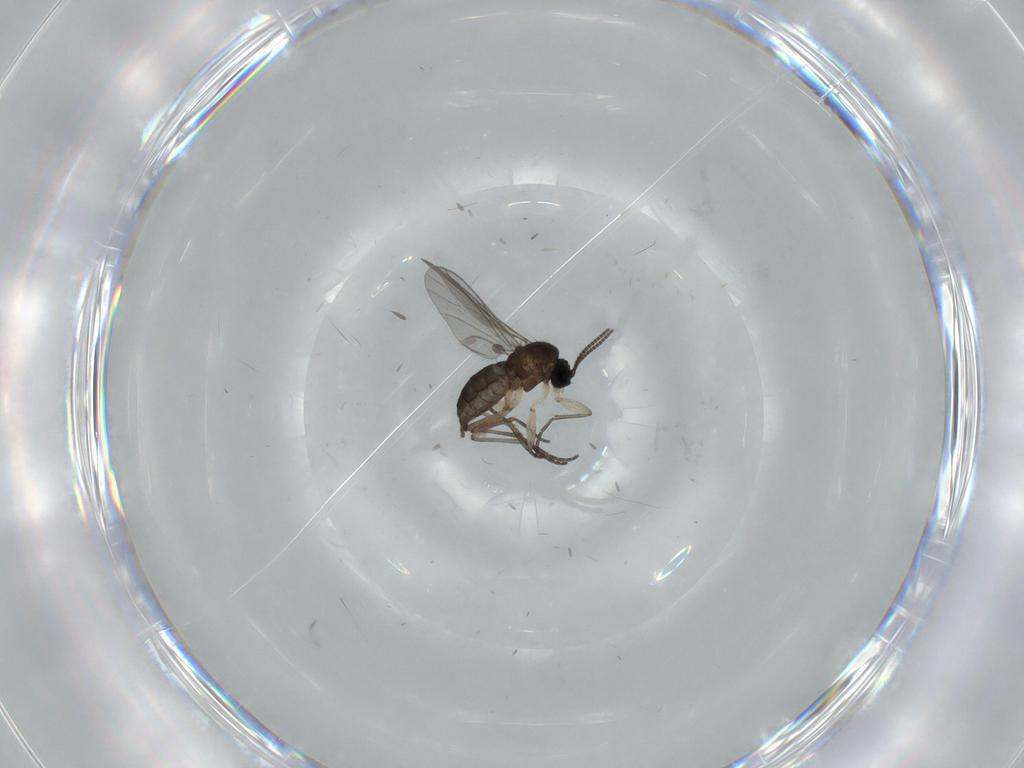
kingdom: Animalia
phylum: Arthropoda
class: Insecta
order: Diptera
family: Sciaridae
